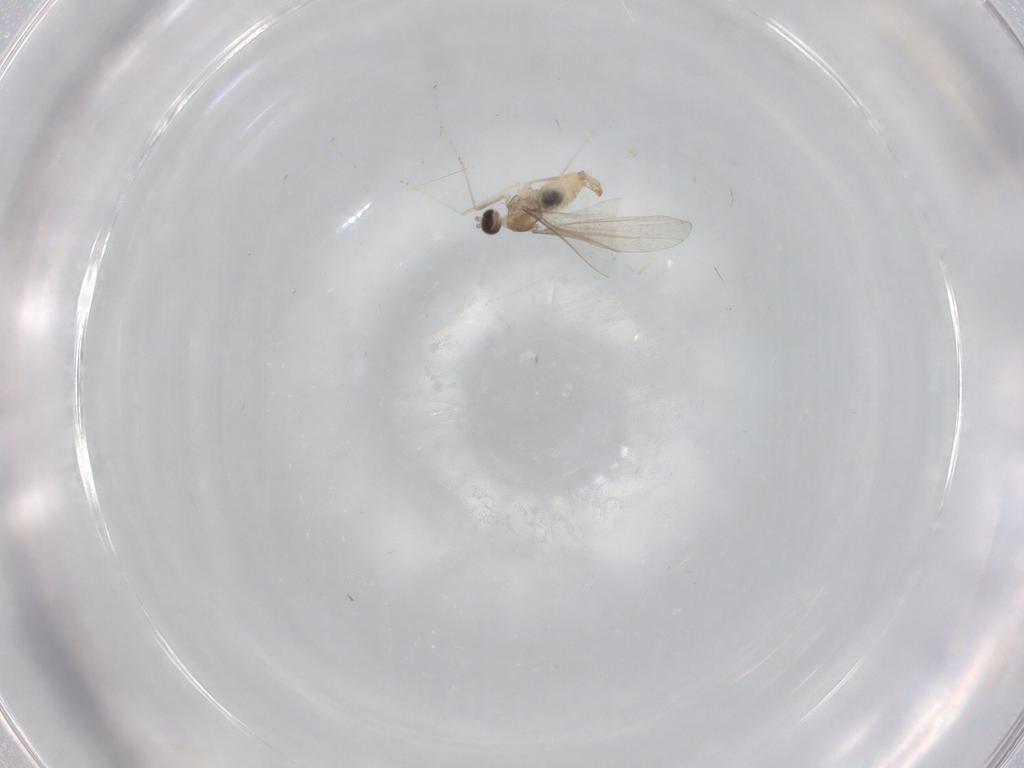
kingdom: Animalia
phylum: Arthropoda
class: Insecta
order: Diptera
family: Cecidomyiidae
